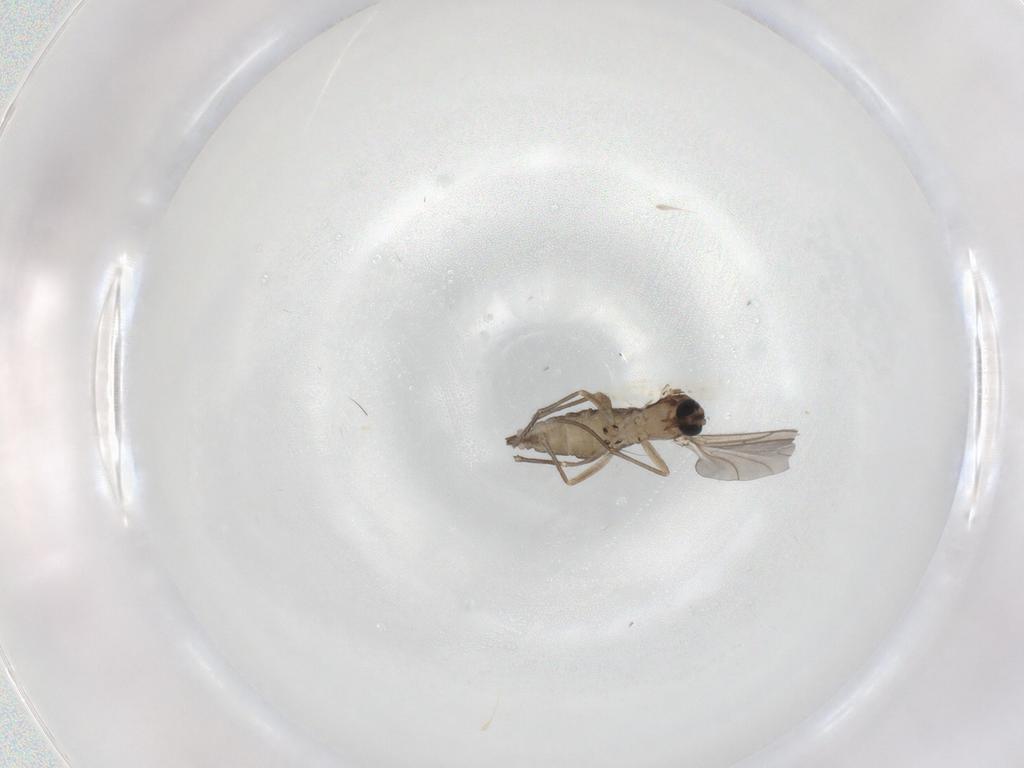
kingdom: Animalia
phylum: Arthropoda
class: Insecta
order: Diptera
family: Sciaridae
